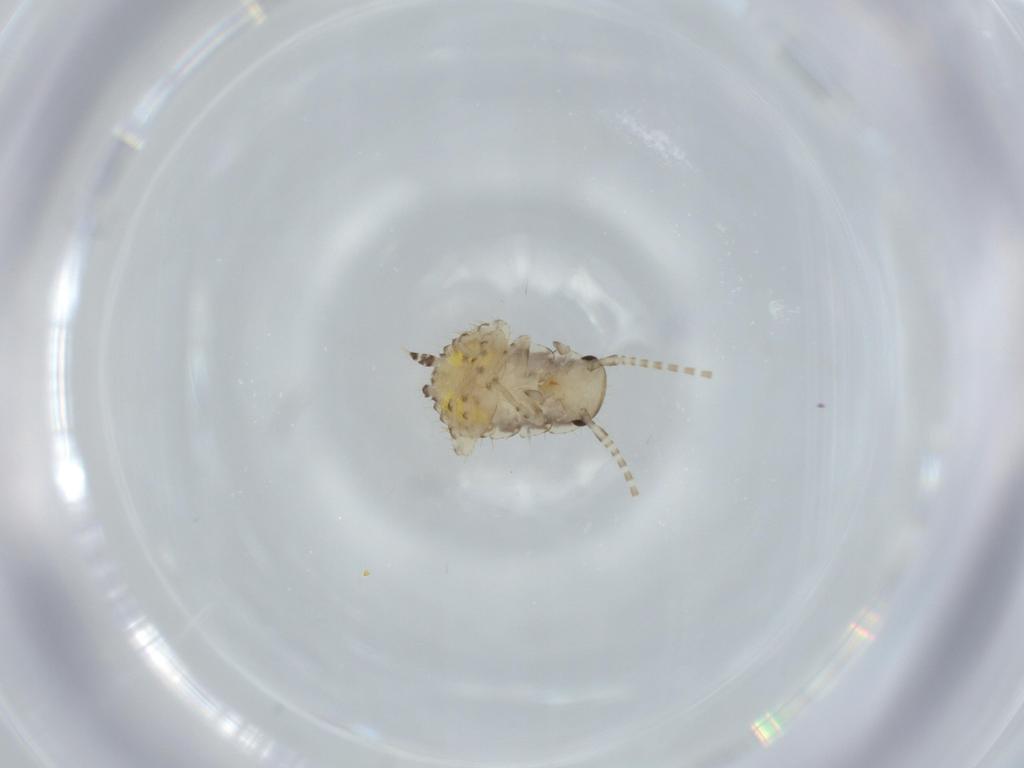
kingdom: Animalia
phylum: Arthropoda
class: Insecta
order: Blattodea
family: Ectobiidae
